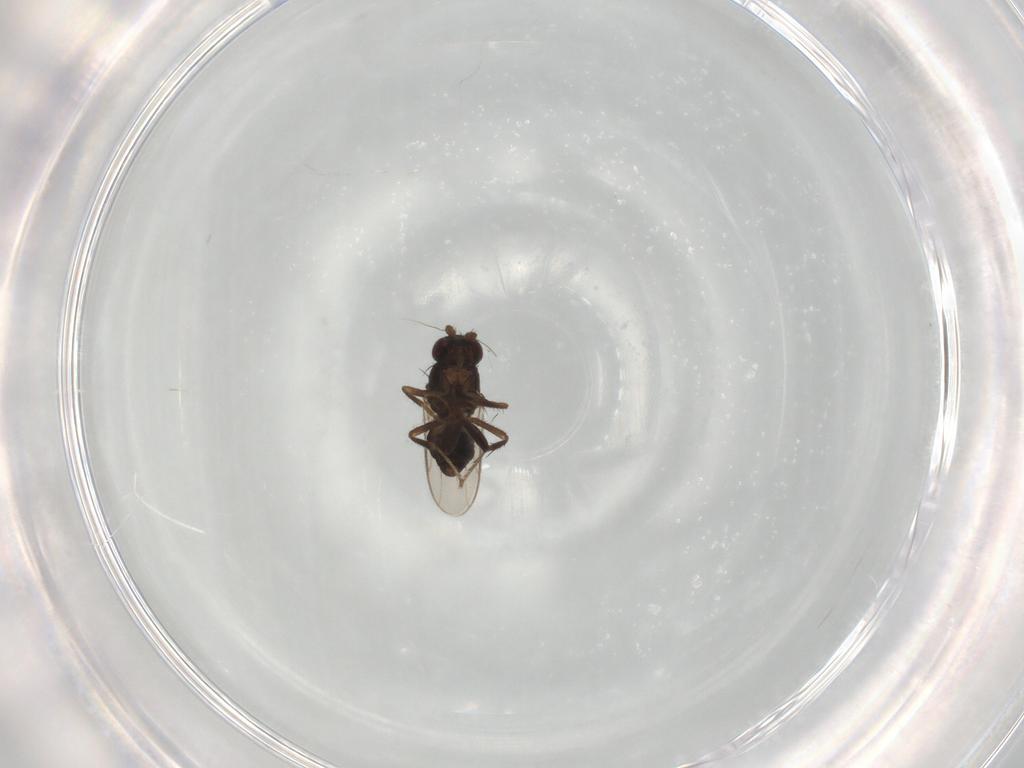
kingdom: Animalia
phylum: Arthropoda
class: Insecta
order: Diptera
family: Sphaeroceridae
